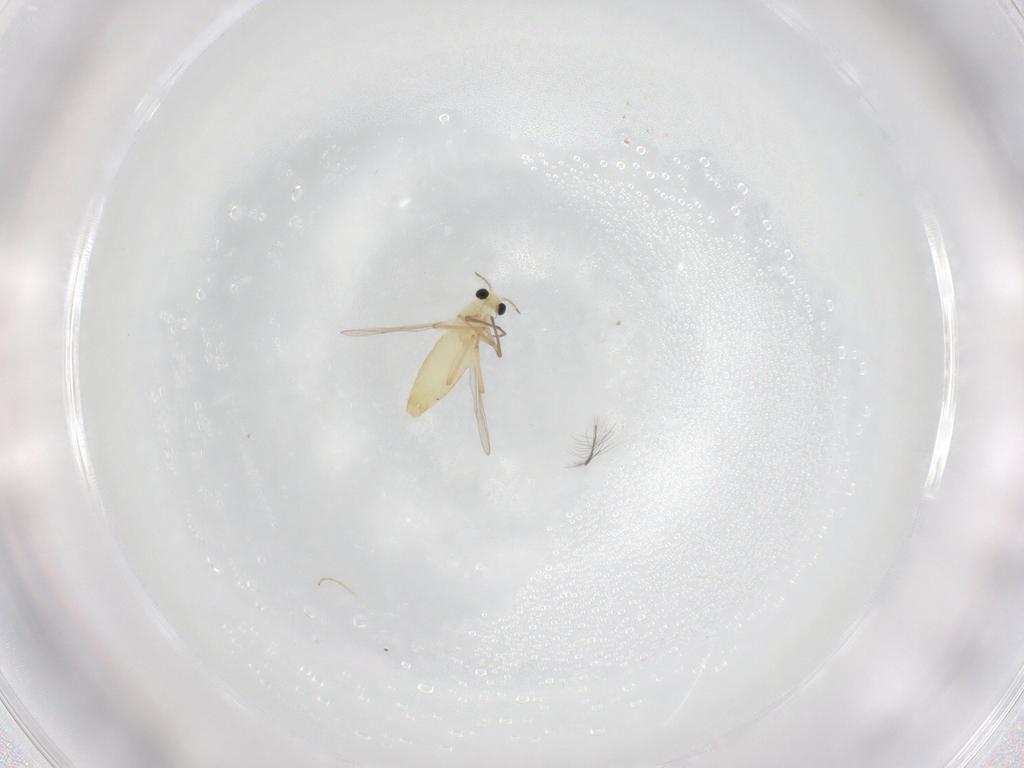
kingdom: Animalia
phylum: Arthropoda
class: Insecta
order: Diptera
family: Chironomidae
